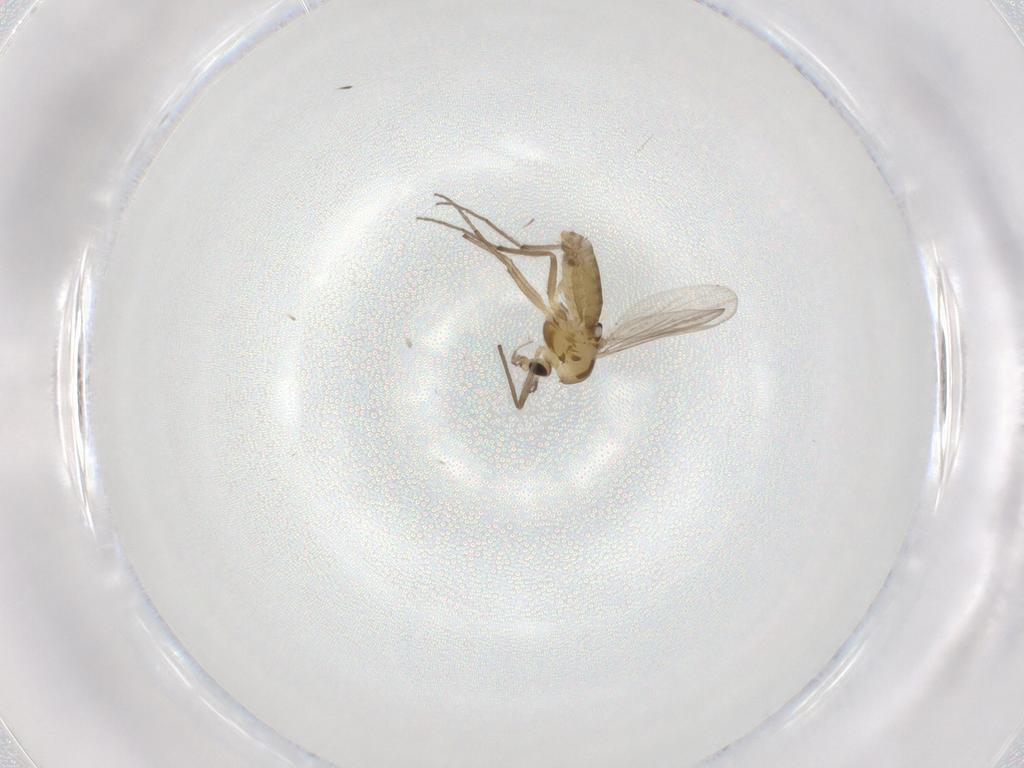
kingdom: Animalia
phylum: Arthropoda
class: Insecta
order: Diptera
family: Chironomidae
